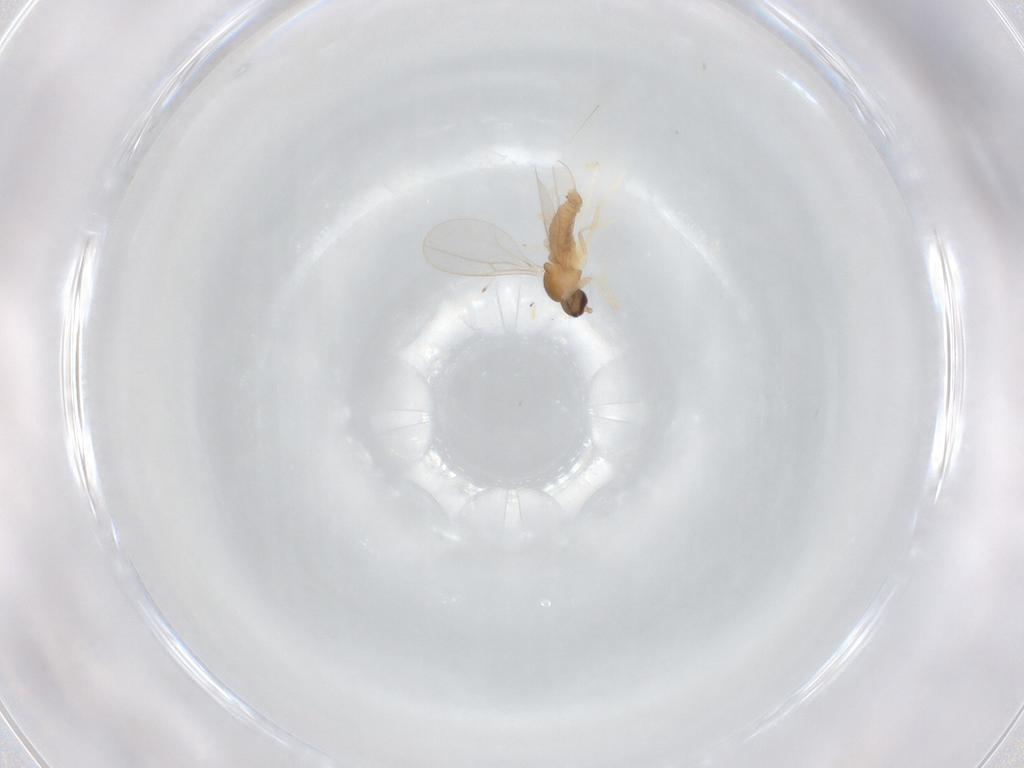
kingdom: Animalia
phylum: Arthropoda
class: Insecta
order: Diptera
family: Cecidomyiidae
